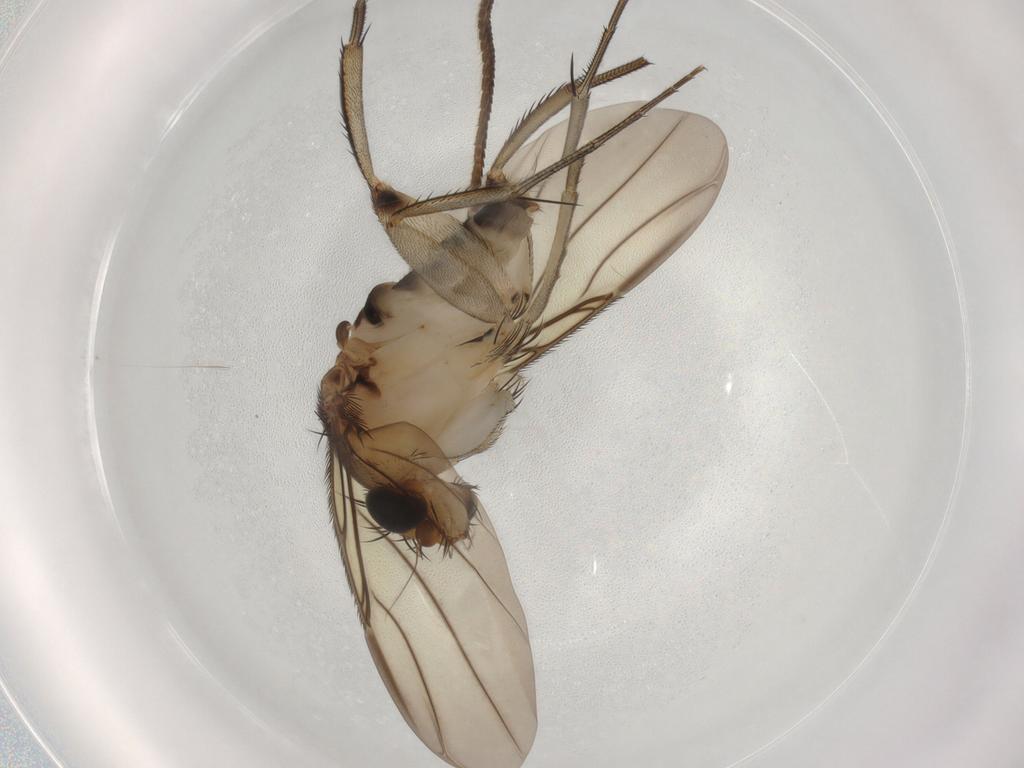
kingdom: Animalia
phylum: Arthropoda
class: Insecta
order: Diptera
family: Phoridae
